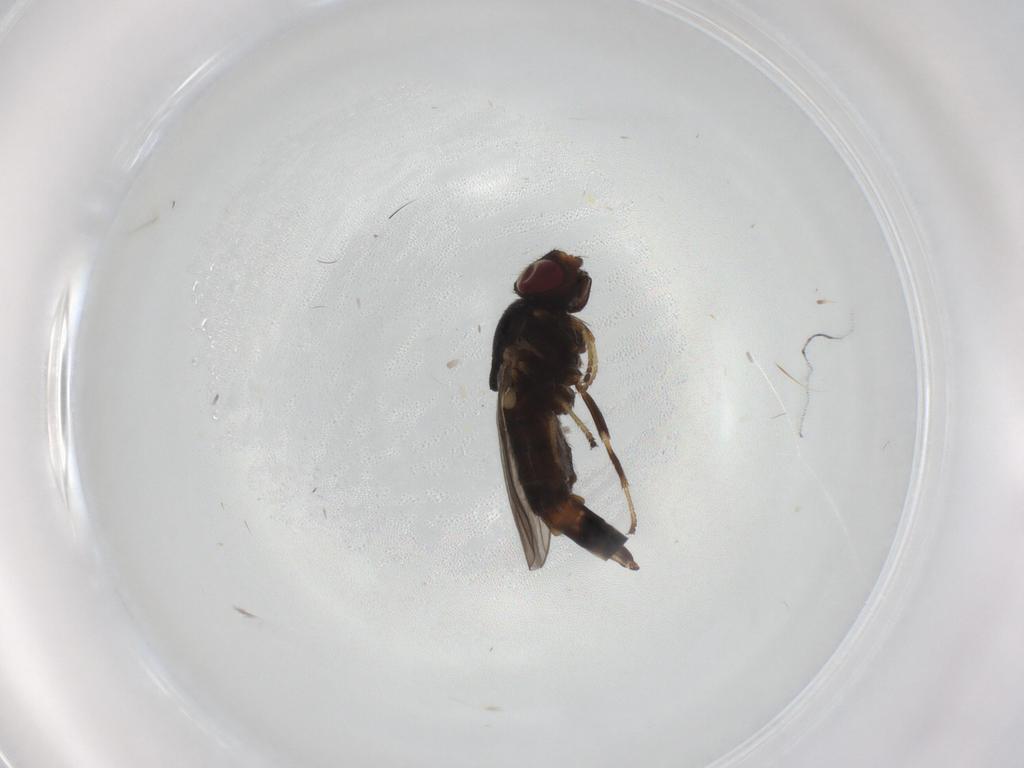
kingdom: Animalia
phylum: Arthropoda
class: Insecta
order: Diptera
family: Chloropidae
